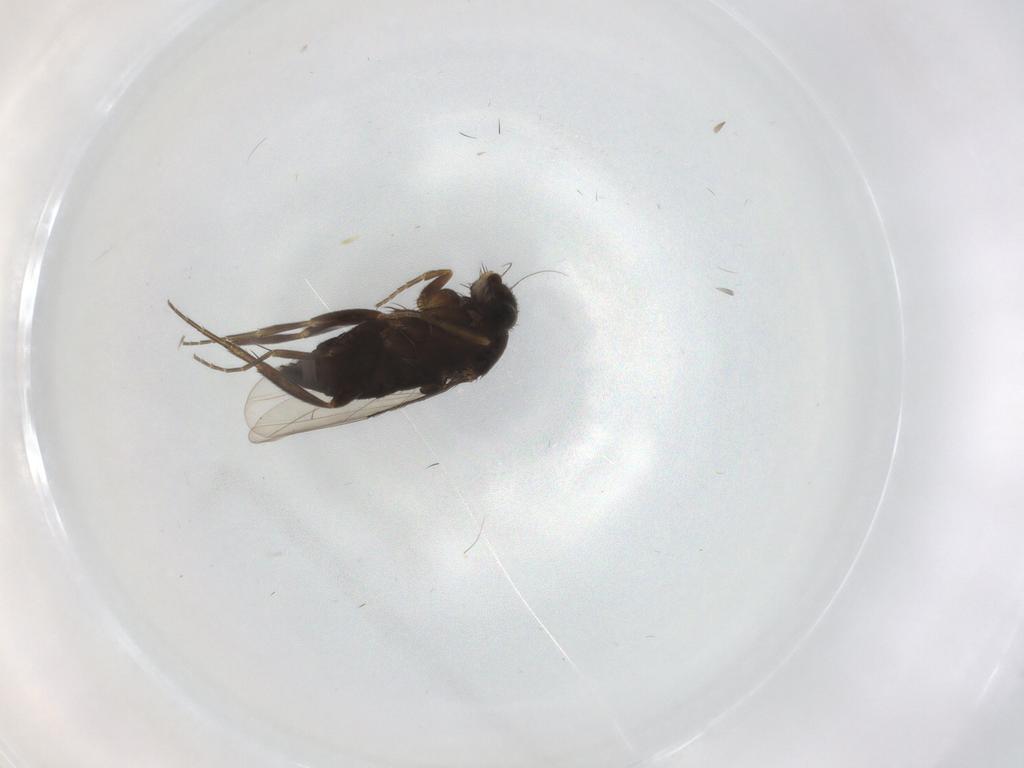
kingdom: Animalia
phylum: Arthropoda
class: Insecta
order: Diptera
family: Phoridae
